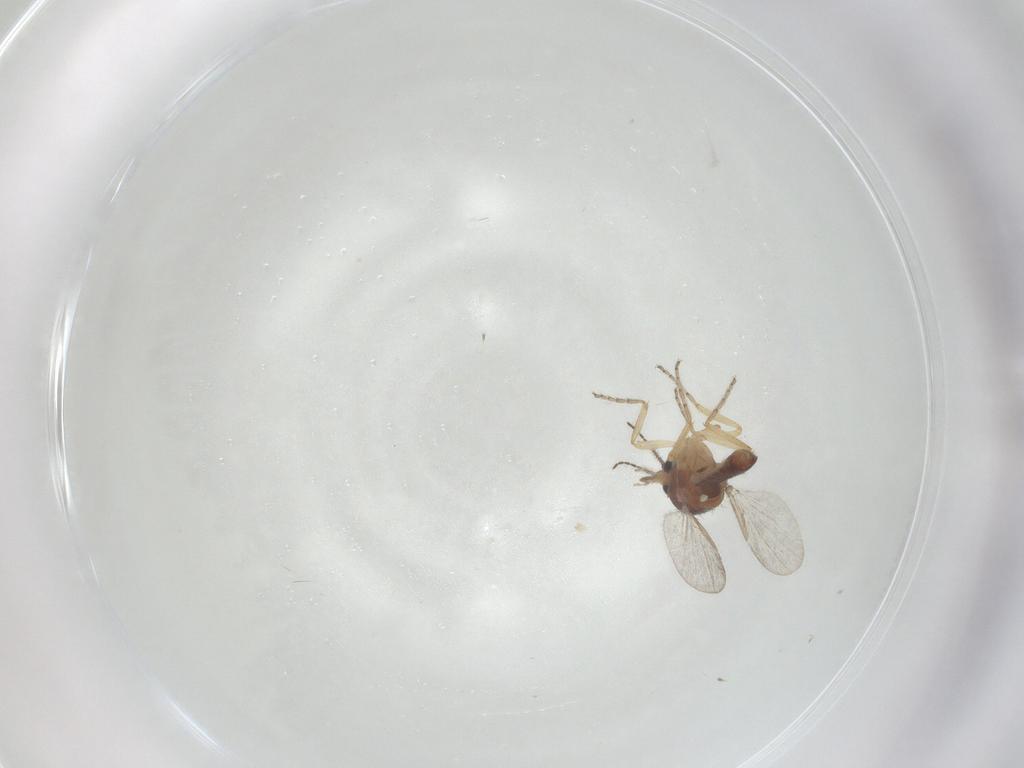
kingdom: Animalia
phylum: Arthropoda
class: Insecta
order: Diptera
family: Ceratopogonidae
